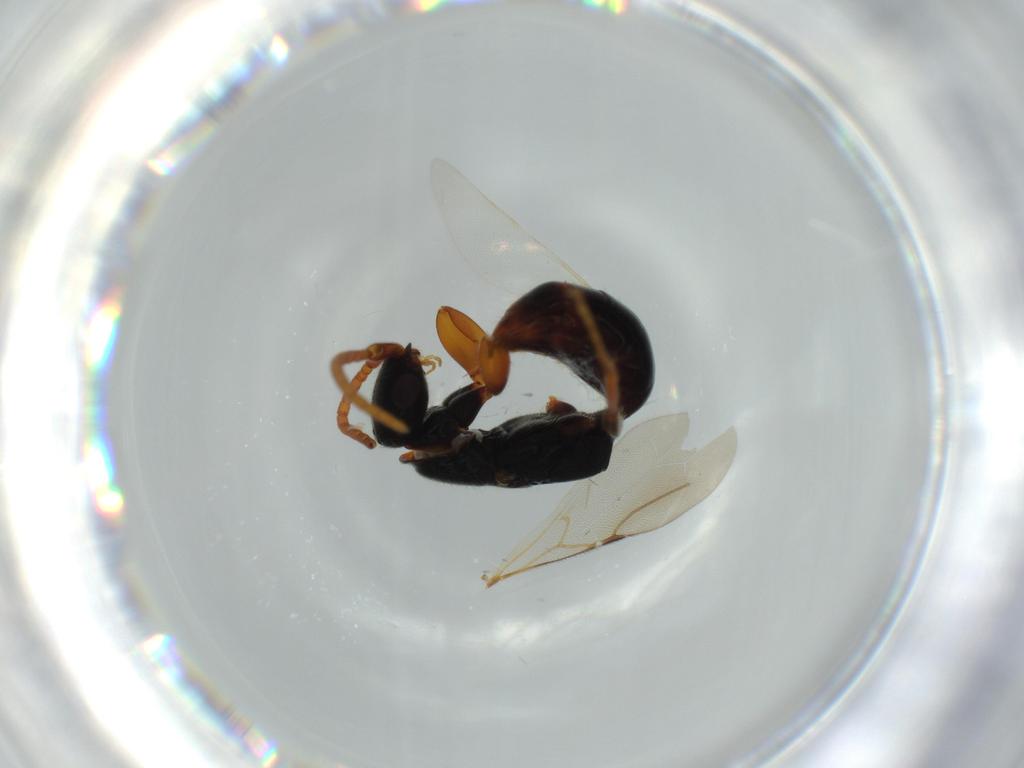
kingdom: Animalia
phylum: Arthropoda
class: Insecta
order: Hymenoptera
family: Bethylidae
